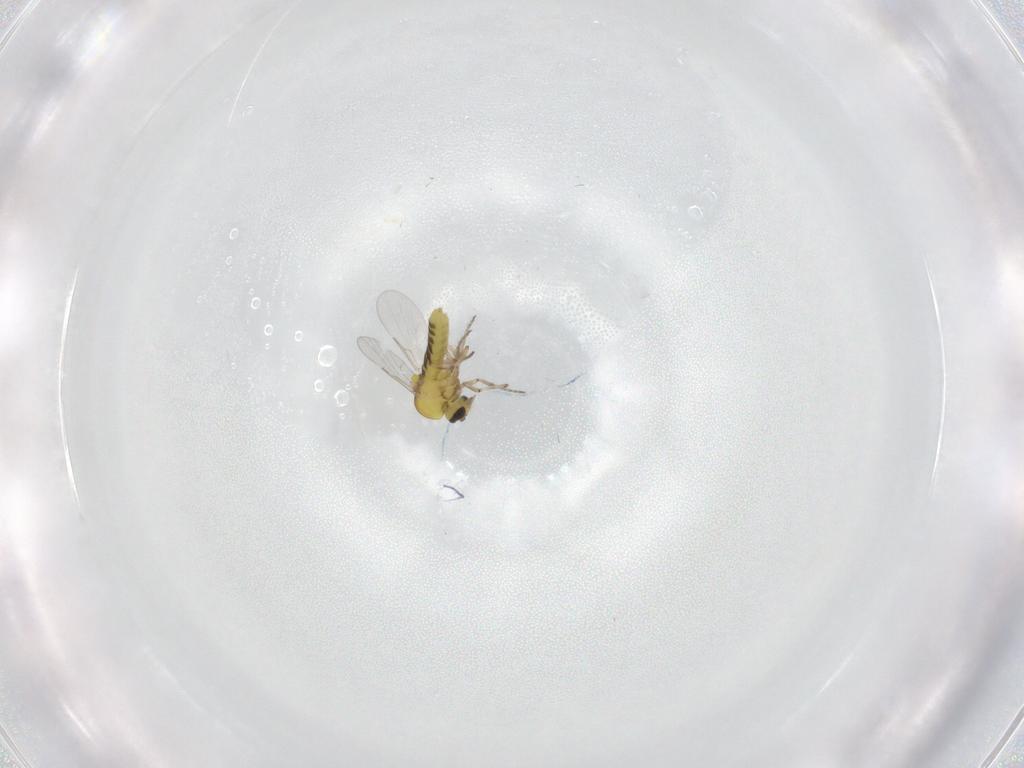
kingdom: Animalia
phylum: Arthropoda
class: Insecta
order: Diptera
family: Ceratopogonidae
